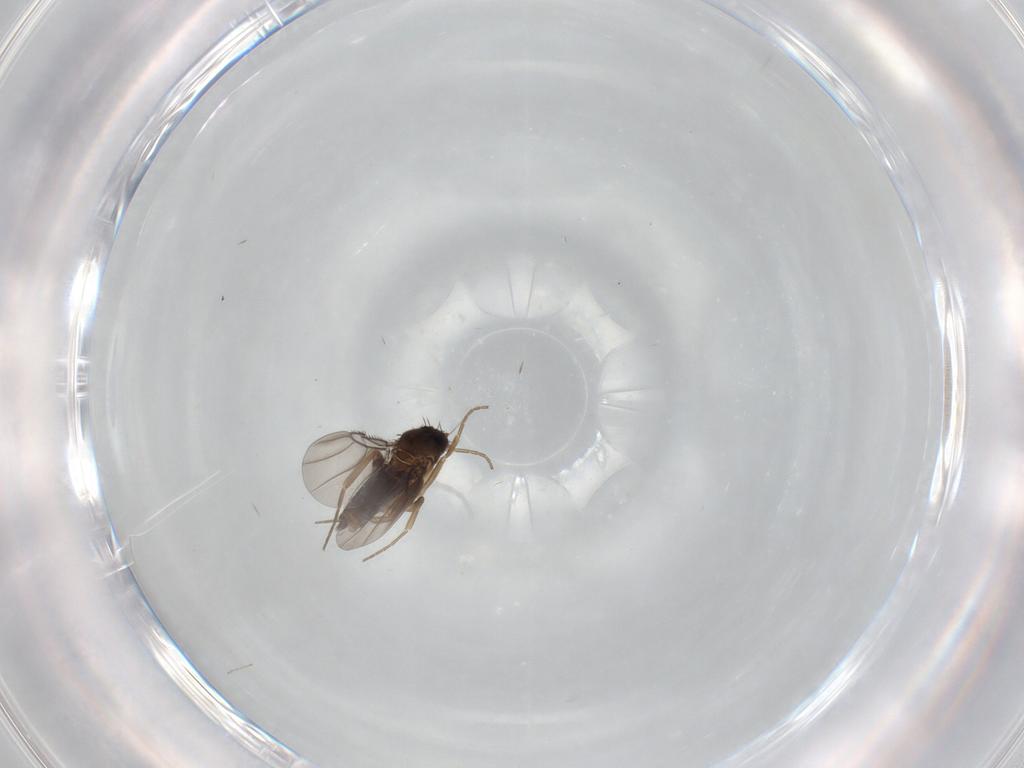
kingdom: Animalia
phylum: Arthropoda
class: Insecta
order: Diptera
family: Cecidomyiidae
